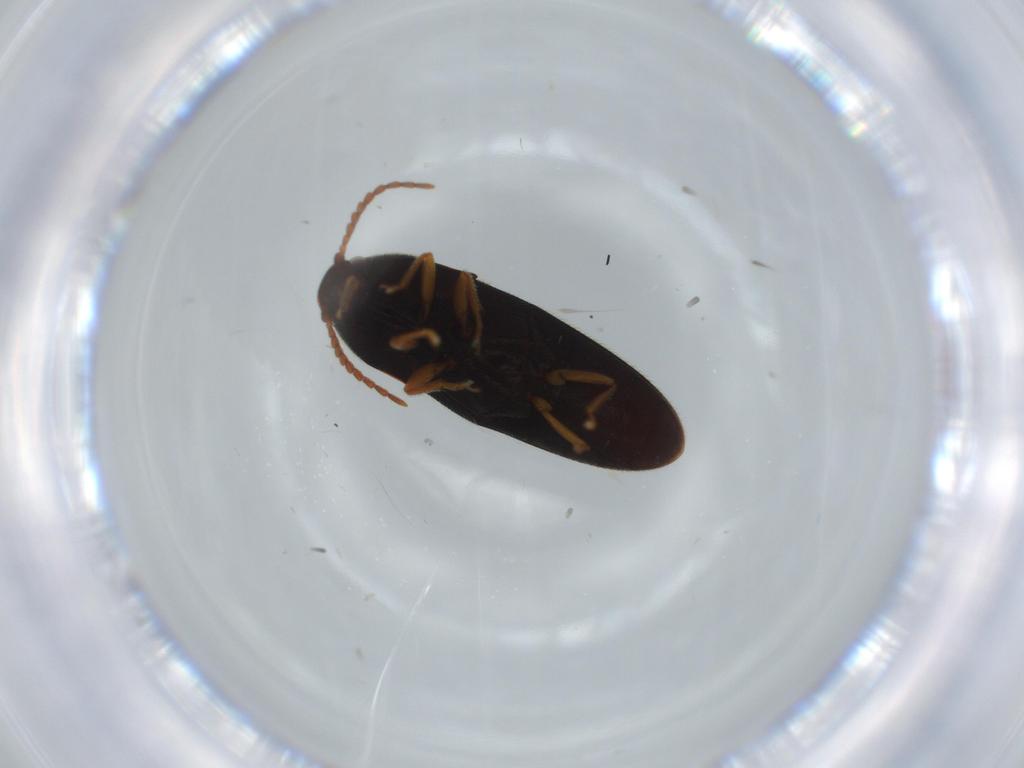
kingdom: Animalia
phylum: Arthropoda
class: Insecta
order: Coleoptera
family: Elateridae
